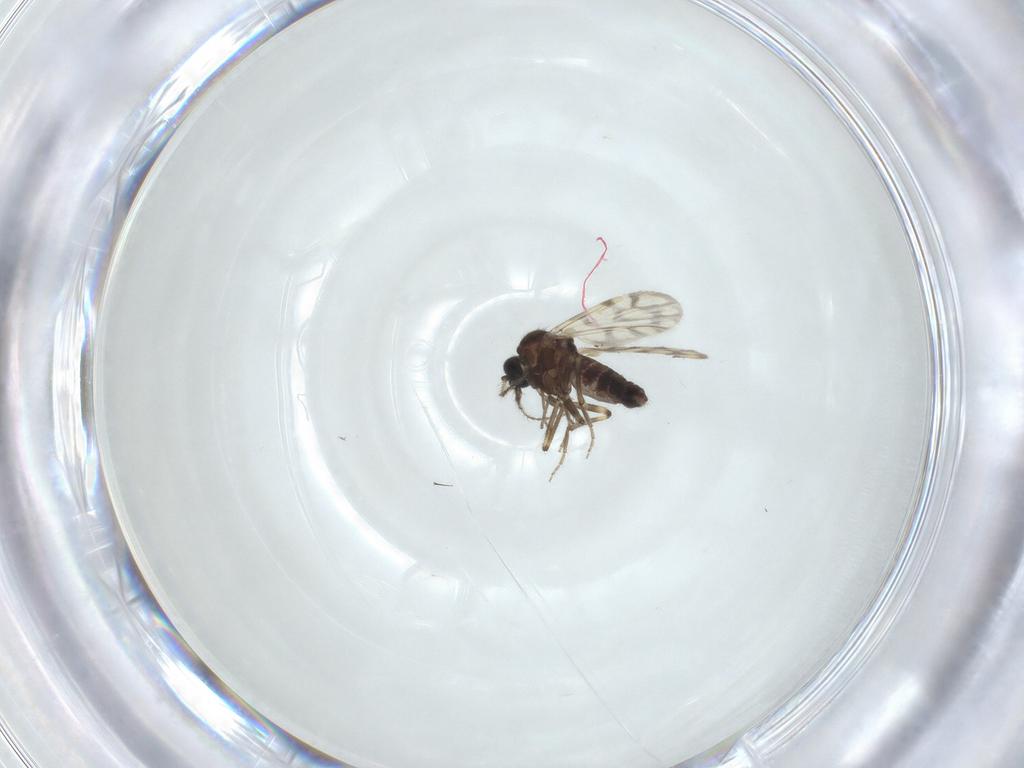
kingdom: Animalia
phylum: Arthropoda
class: Insecta
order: Diptera
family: Ceratopogonidae
